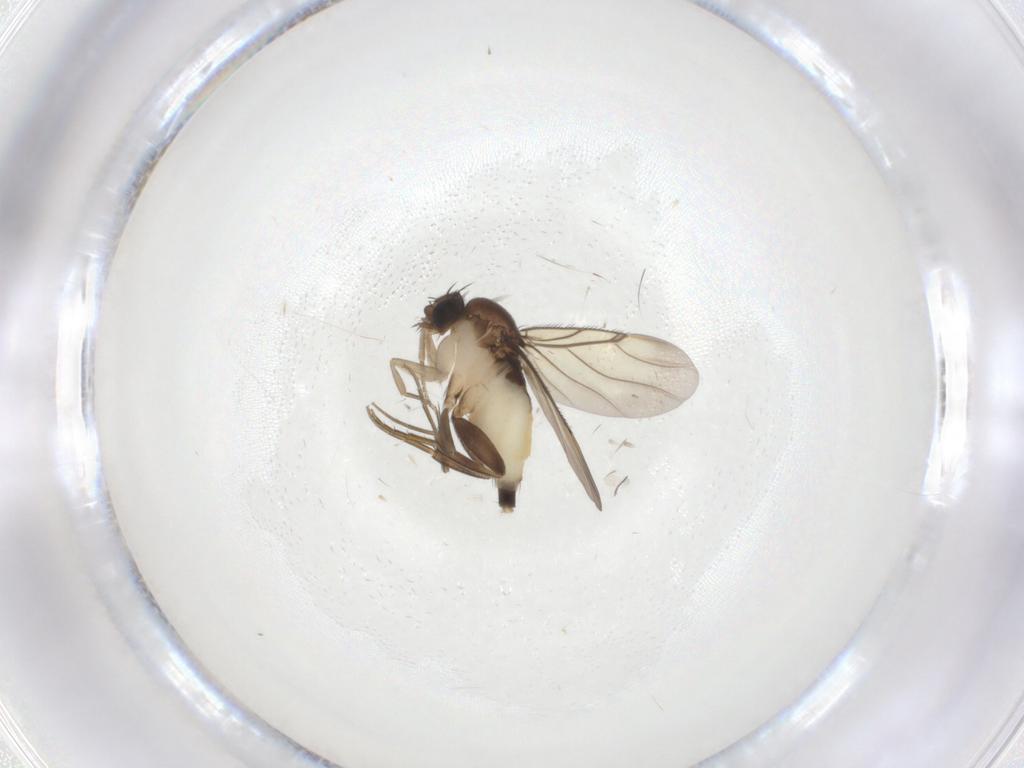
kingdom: Animalia
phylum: Arthropoda
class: Insecta
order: Diptera
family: Phoridae
